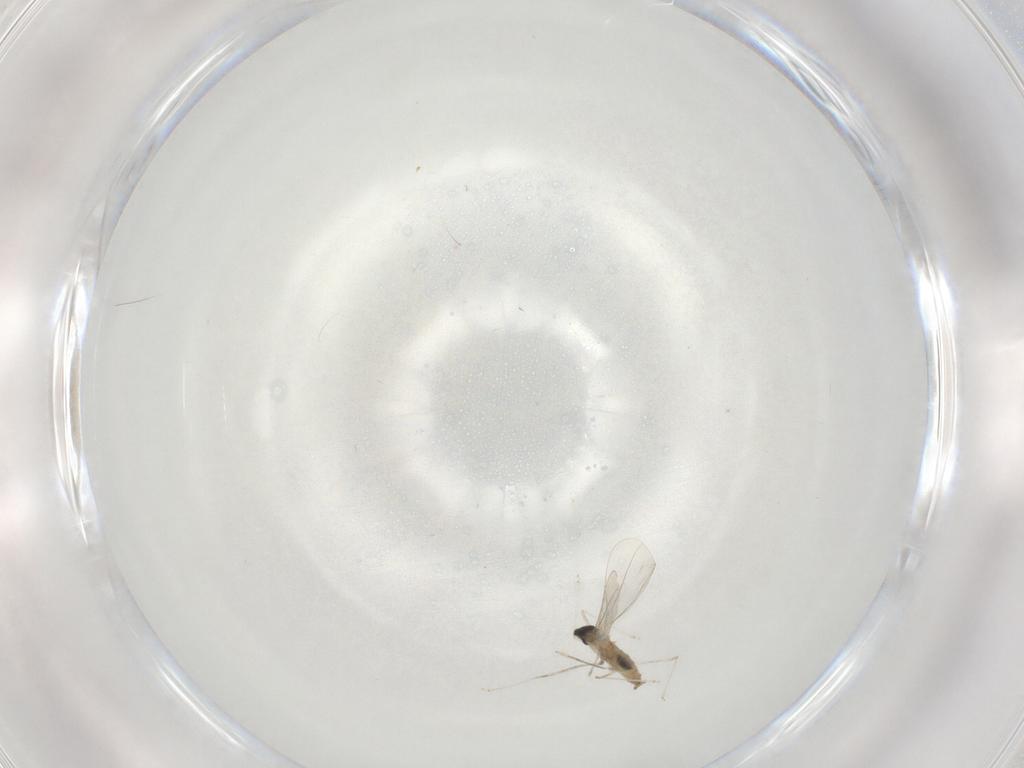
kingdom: Animalia
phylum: Arthropoda
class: Insecta
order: Diptera
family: Cecidomyiidae
